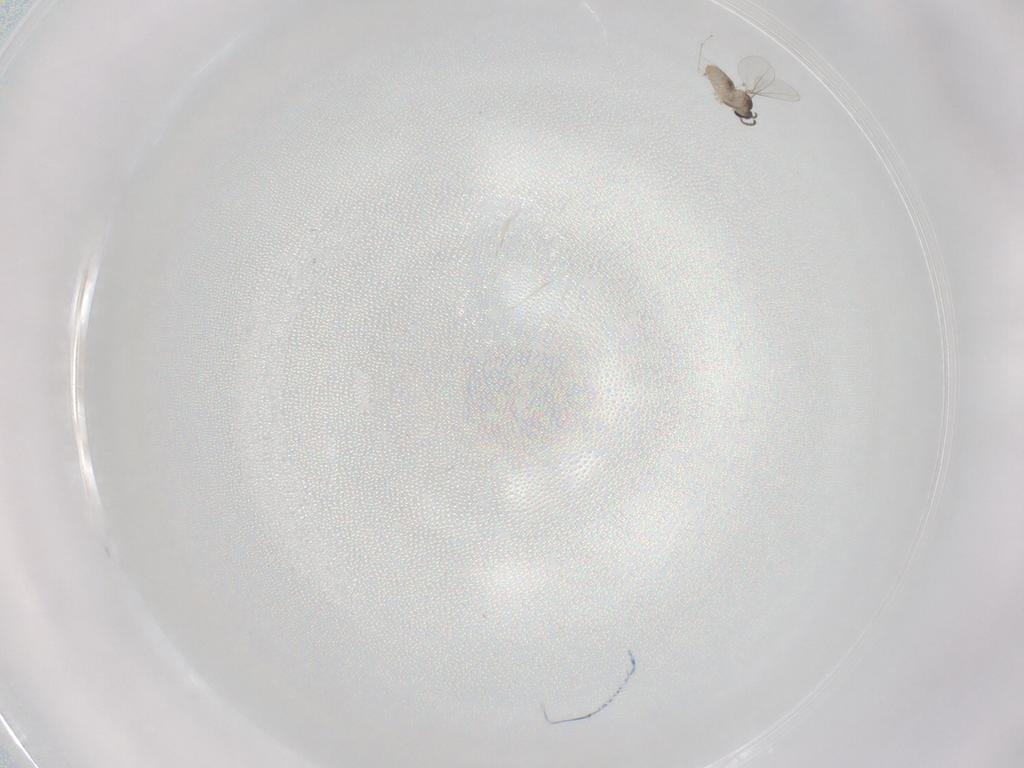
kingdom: Animalia
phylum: Arthropoda
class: Insecta
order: Diptera
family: Cecidomyiidae
